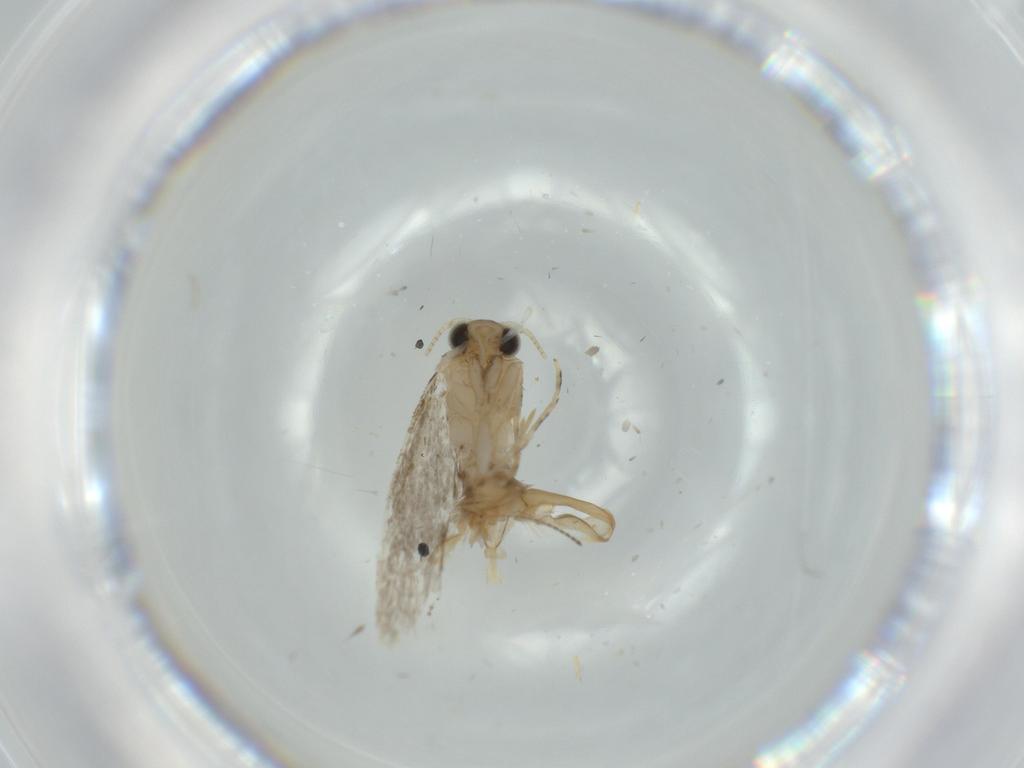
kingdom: Animalia
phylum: Arthropoda
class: Insecta
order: Lepidoptera
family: Tineidae
